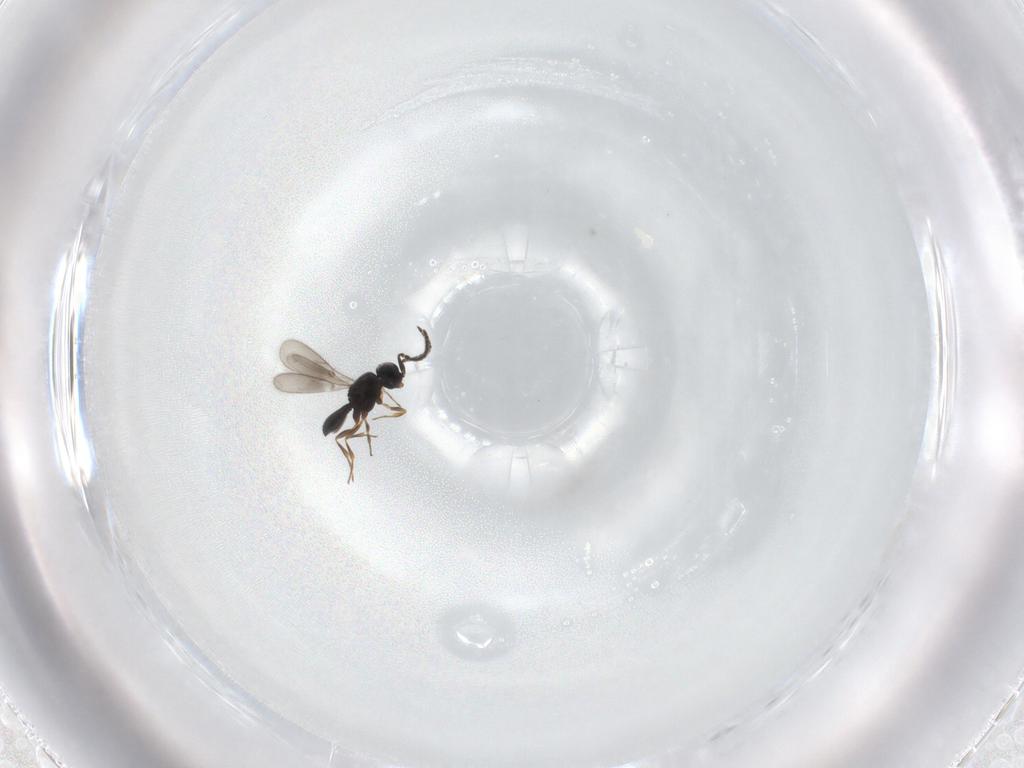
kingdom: Animalia
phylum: Arthropoda
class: Insecta
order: Hymenoptera
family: Scelionidae
